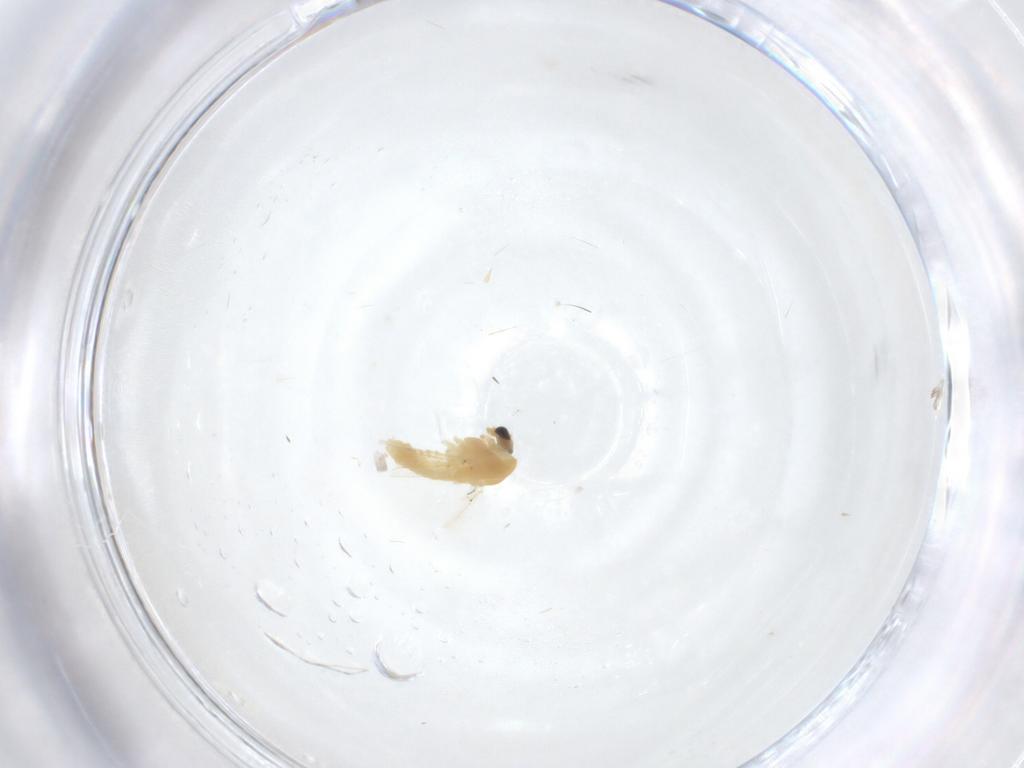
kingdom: Animalia
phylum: Arthropoda
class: Insecta
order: Diptera
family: Chironomidae
